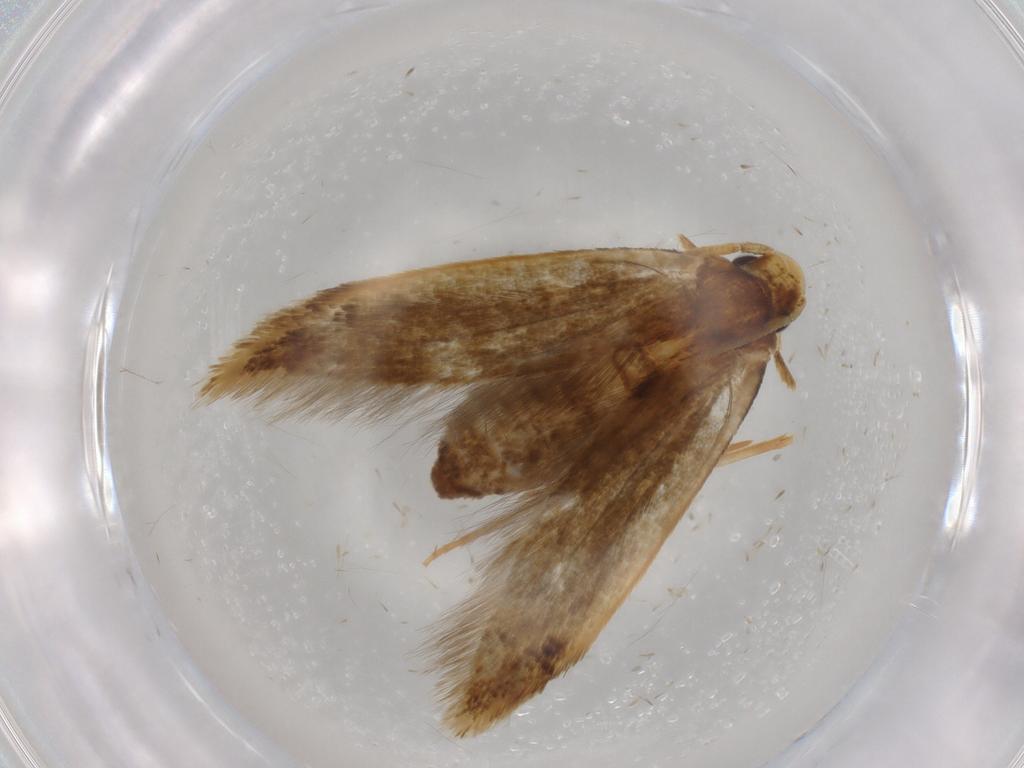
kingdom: Animalia
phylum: Arthropoda
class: Insecta
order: Lepidoptera
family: Tineidae
